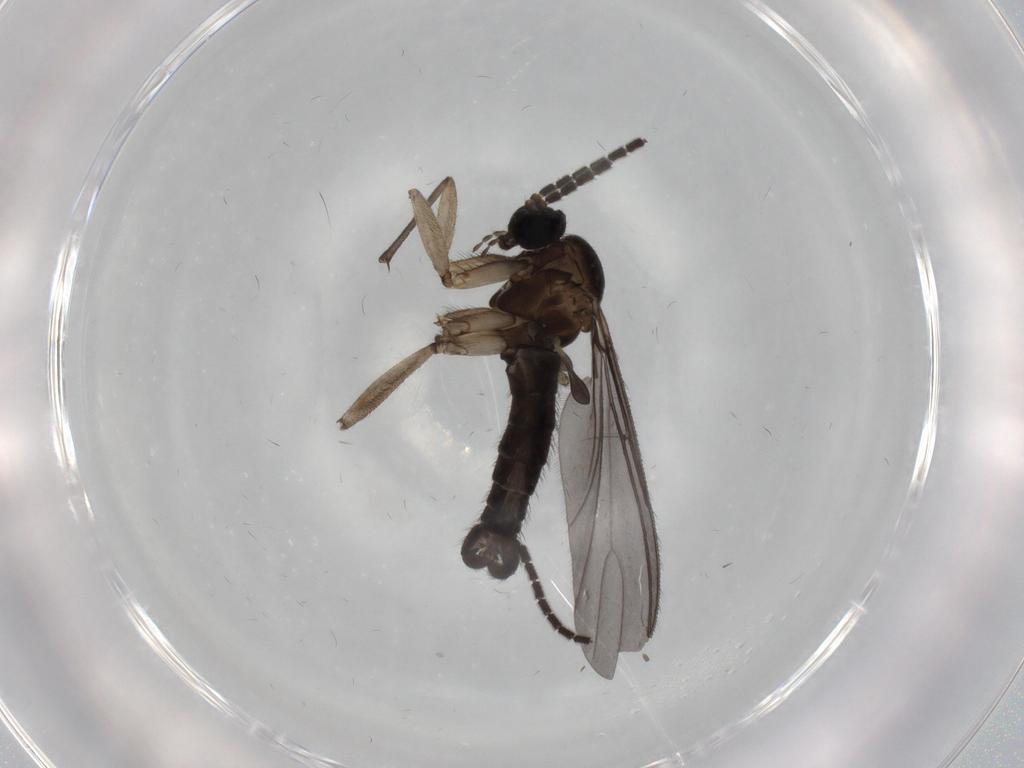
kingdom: Animalia
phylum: Arthropoda
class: Insecta
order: Diptera
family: Sciaridae
